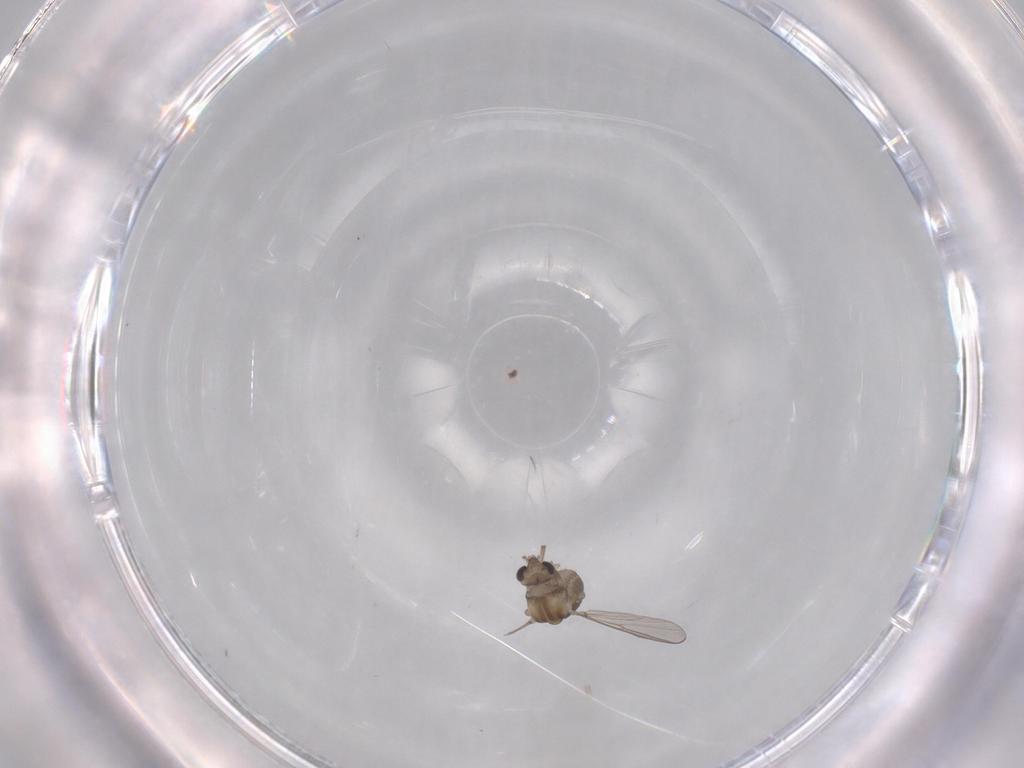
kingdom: Animalia
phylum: Arthropoda
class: Insecta
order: Diptera
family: Chironomidae
